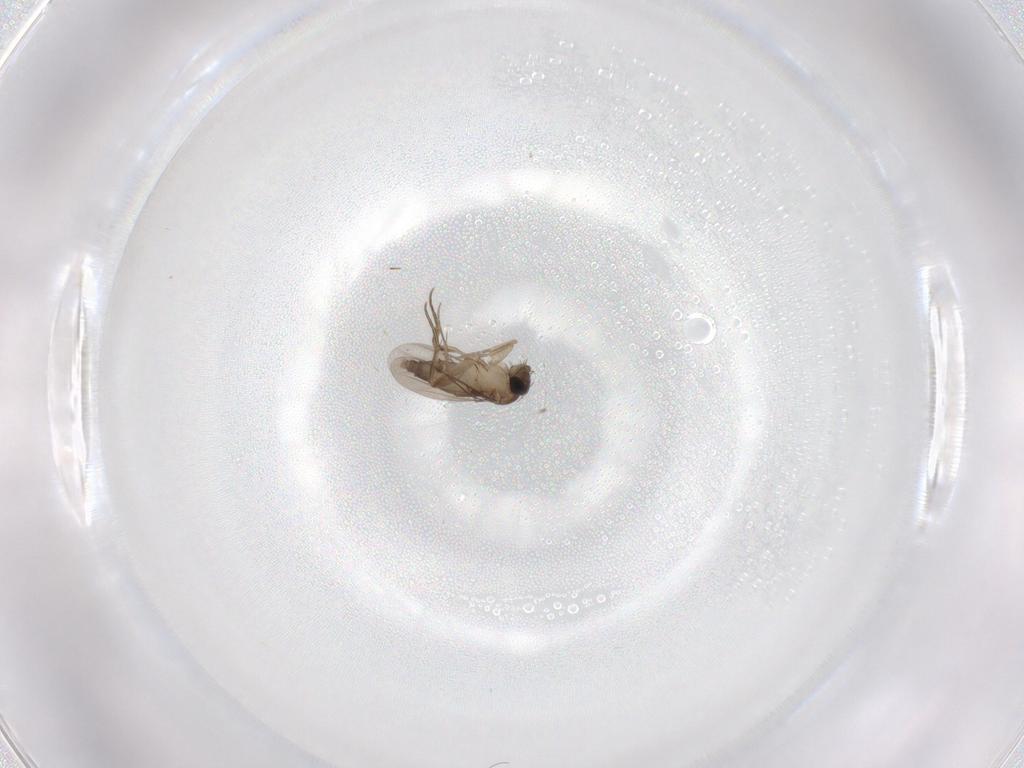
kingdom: Animalia
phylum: Arthropoda
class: Insecta
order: Diptera
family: Phoridae
